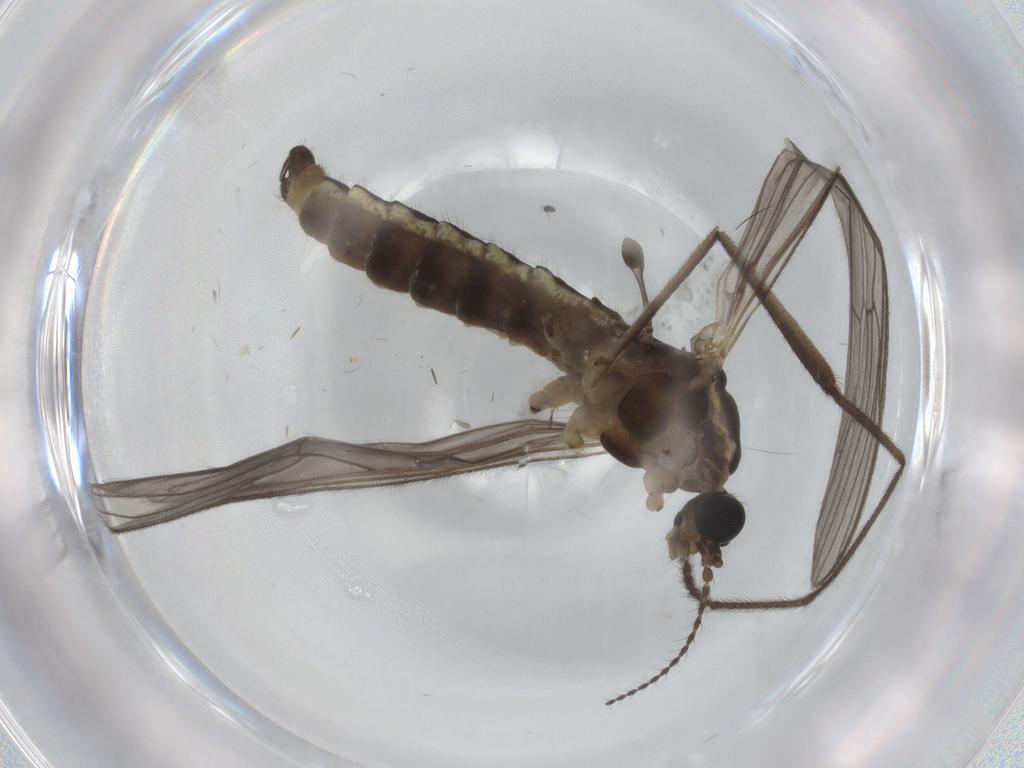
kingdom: Animalia
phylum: Arthropoda
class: Insecta
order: Diptera
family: Limoniidae
